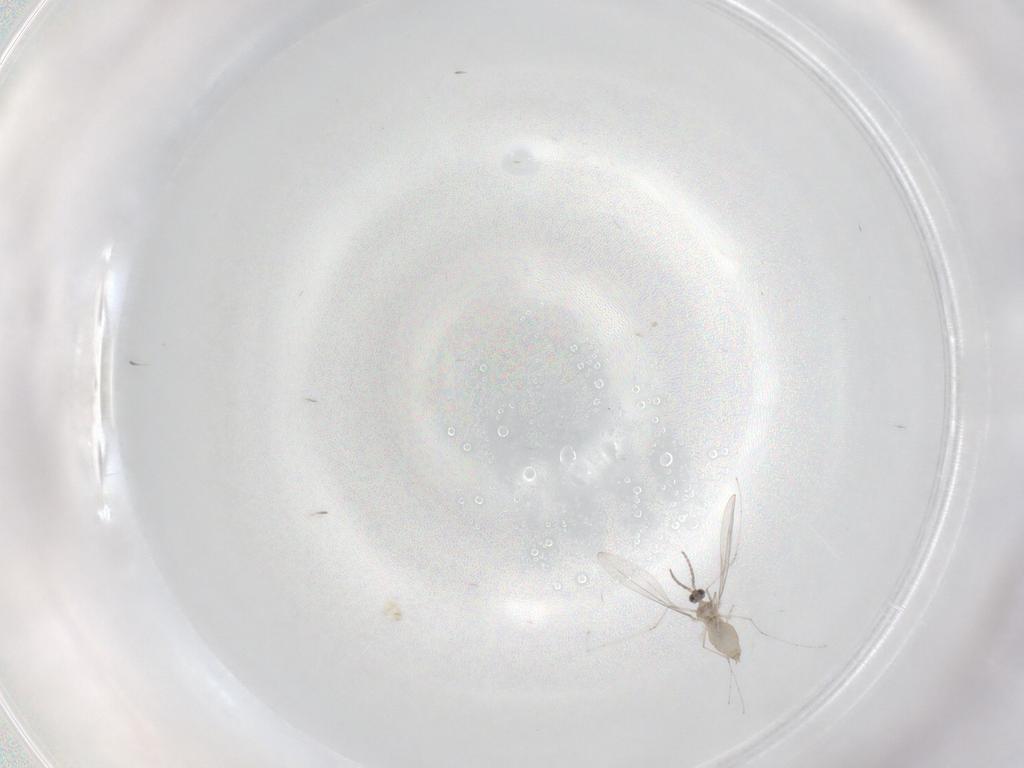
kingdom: Animalia
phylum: Arthropoda
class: Insecta
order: Diptera
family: Cecidomyiidae
